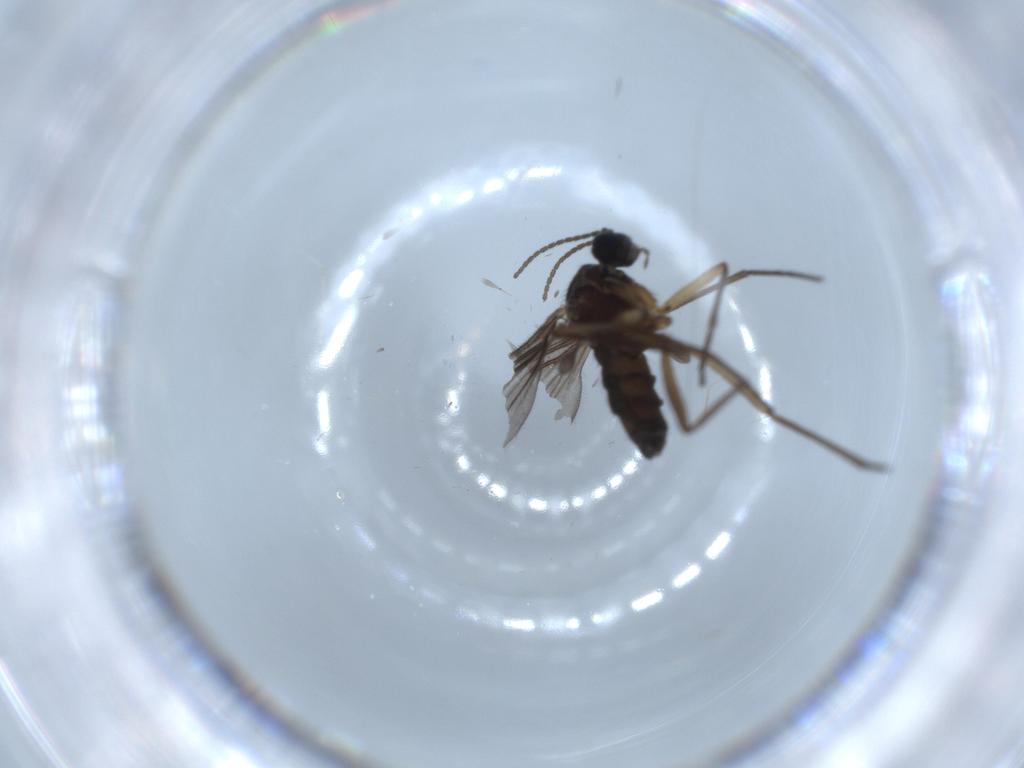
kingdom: Animalia
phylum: Arthropoda
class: Insecta
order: Diptera
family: Sciaridae
